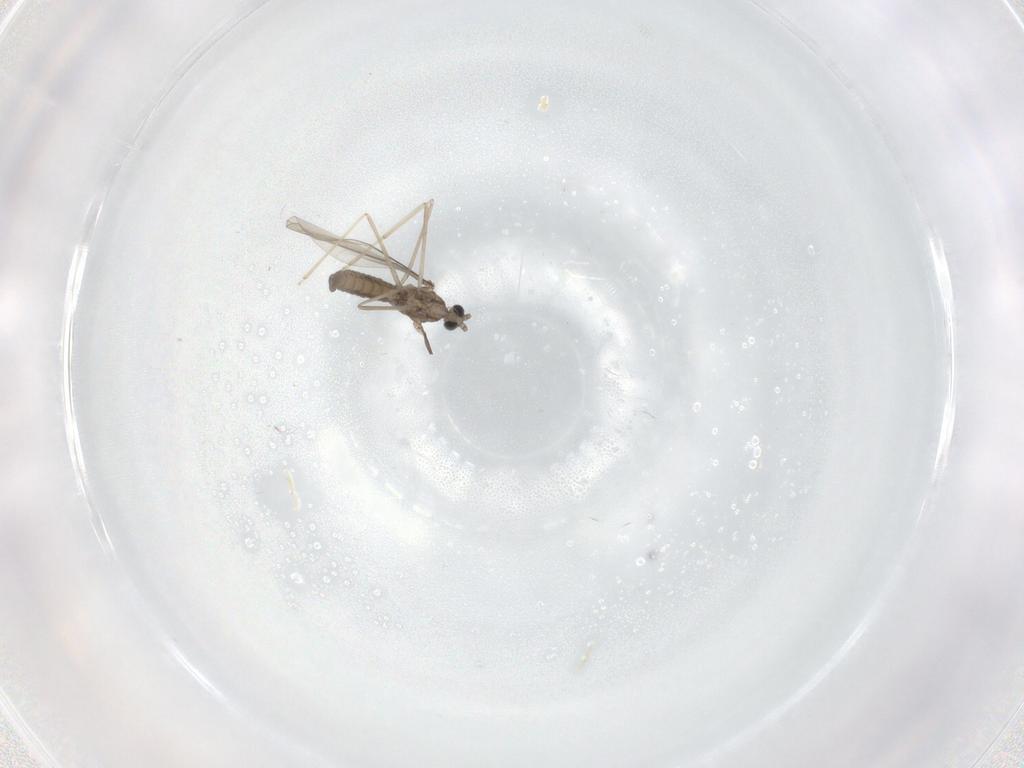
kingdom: Animalia
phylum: Arthropoda
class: Insecta
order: Diptera
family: Cecidomyiidae
